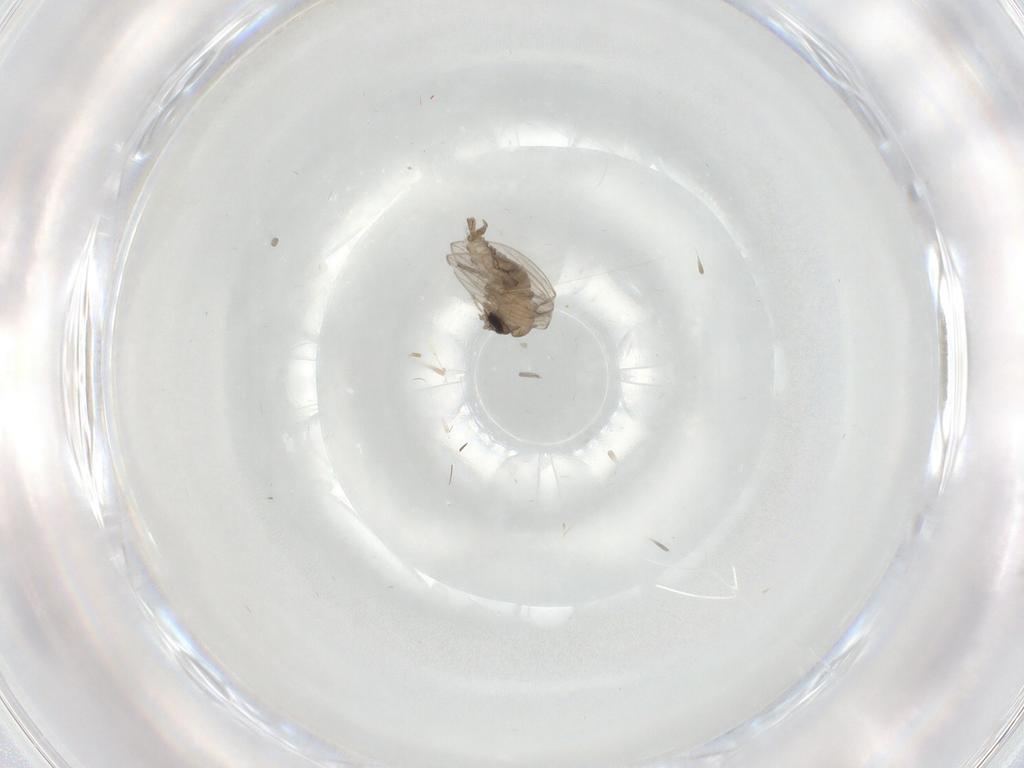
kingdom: Animalia
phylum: Arthropoda
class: Insecta
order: Diptera
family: Psychodidae
